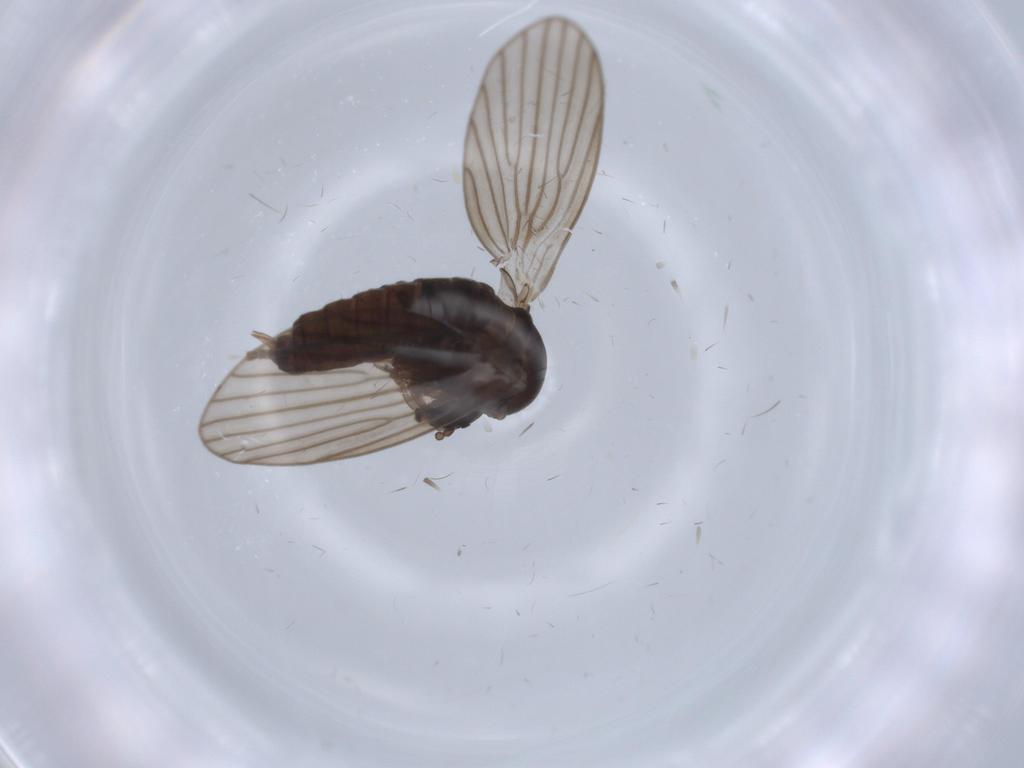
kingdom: Animalia
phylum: Arthropoda
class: Insecta
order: Diptera
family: Psychodidae
